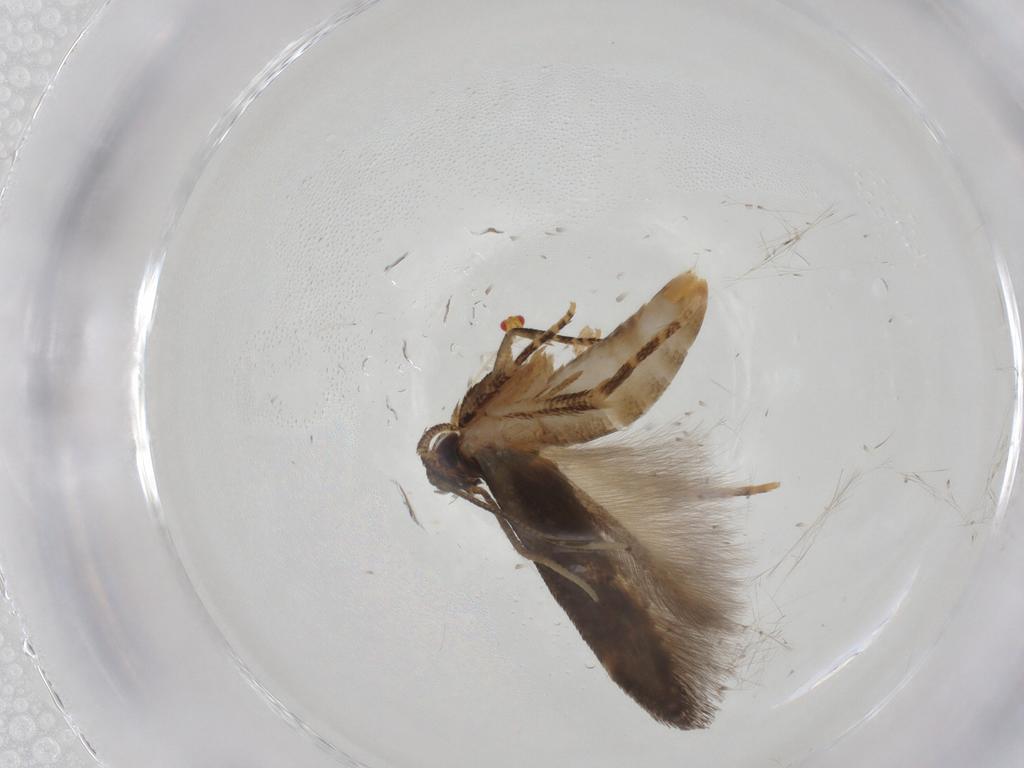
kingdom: Animalia
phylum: Arthropoda
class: Insecta
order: Lepidoptera
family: Cosmopterigidae
